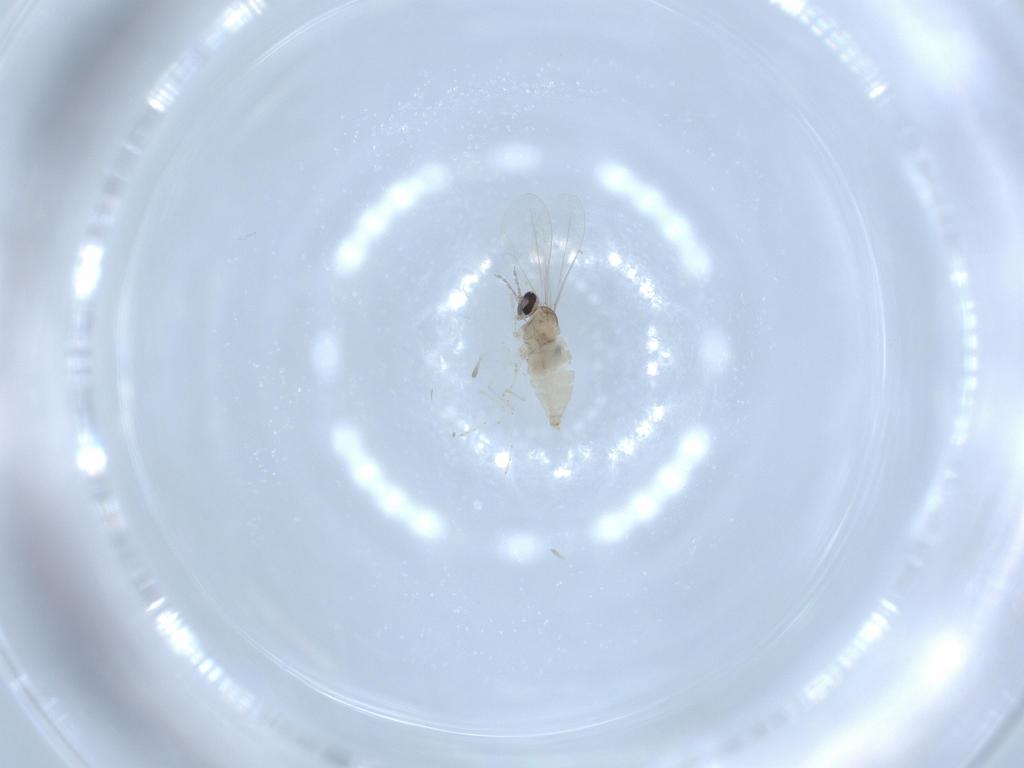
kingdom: Animalia
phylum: Arthropoda
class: Insecta
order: Diptera
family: Cecidomyiidae
